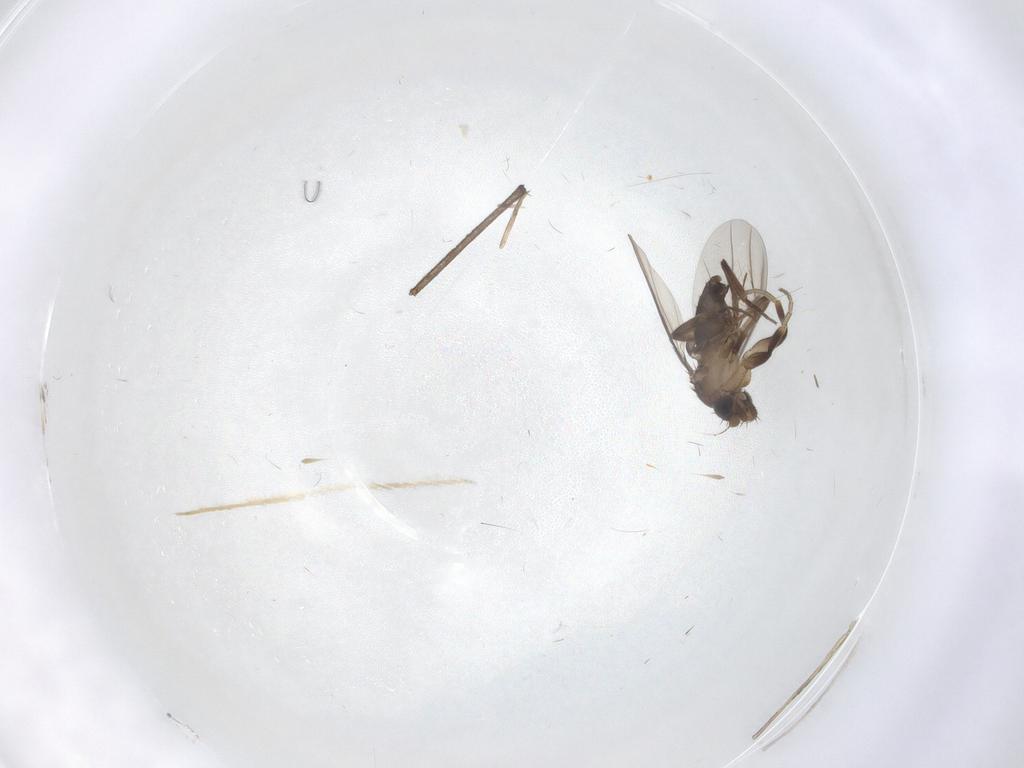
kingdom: Animalia
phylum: Arthropoda
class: Insecta
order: Diptera
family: Phoridae
